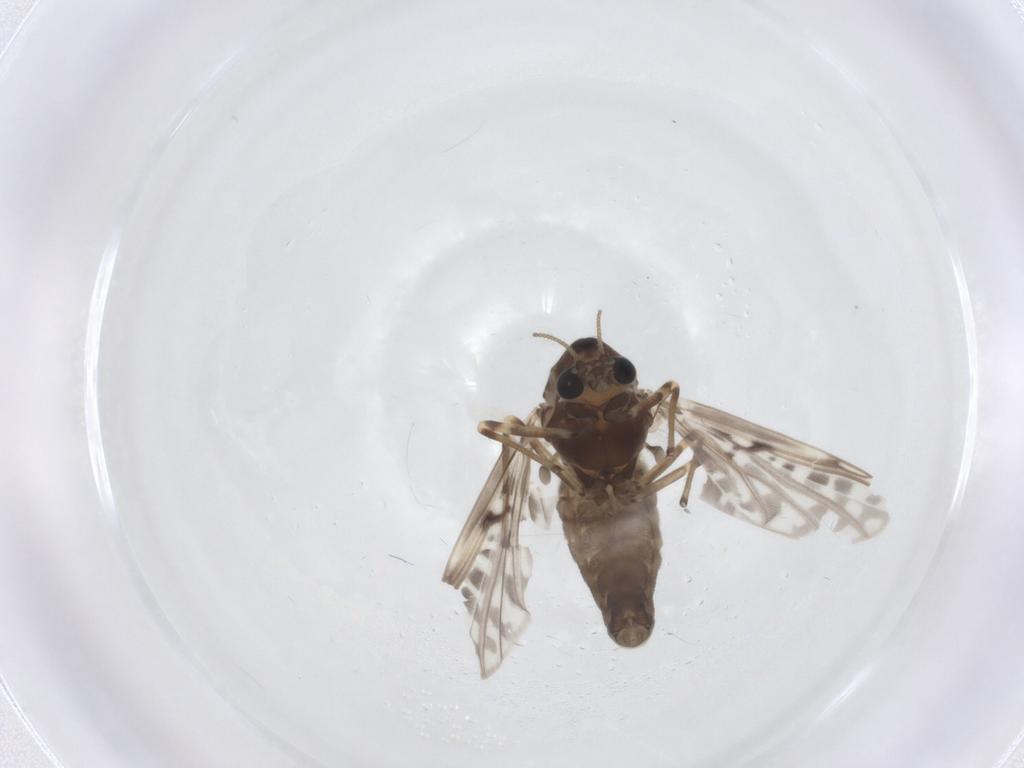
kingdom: Animalia
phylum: Arthropoda
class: Insecta
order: Diptera
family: Chironomidae
